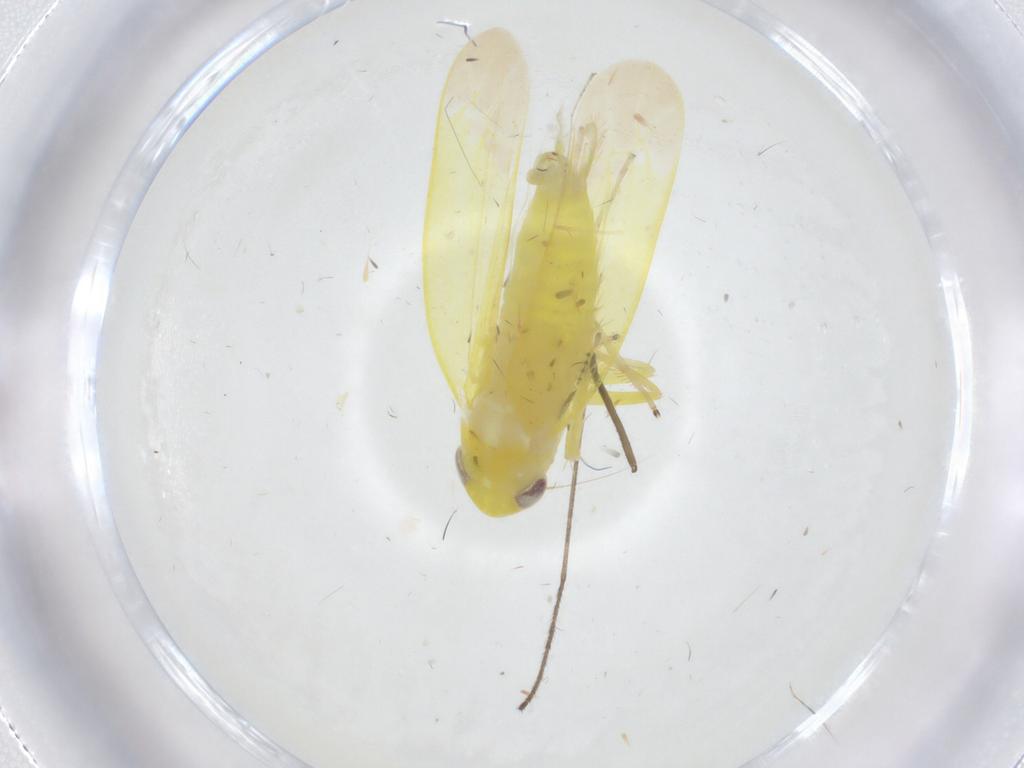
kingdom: Animalia
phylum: Arthropoda
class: Insecta
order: Hemiptera
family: Cicadellidae
